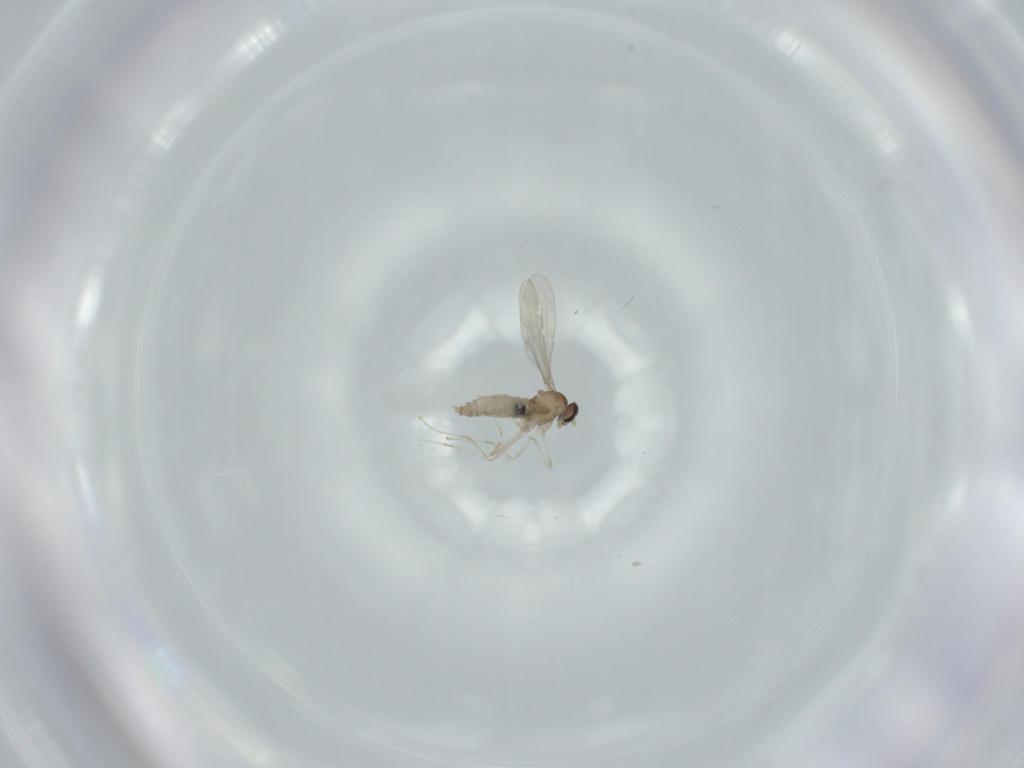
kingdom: Animalia
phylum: Arthropoda
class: Insecta
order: Diptera
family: Cecidomyiidae
